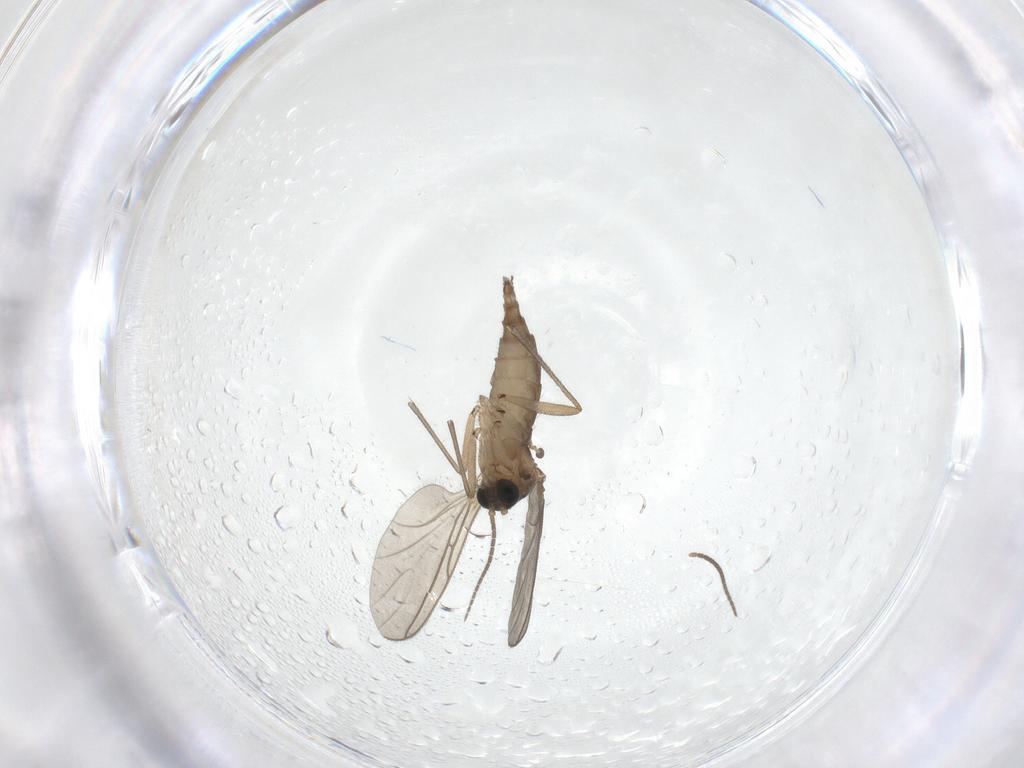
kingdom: Animalia
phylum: Arthropoda
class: Insecta
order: Diptera
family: Sciaridae
